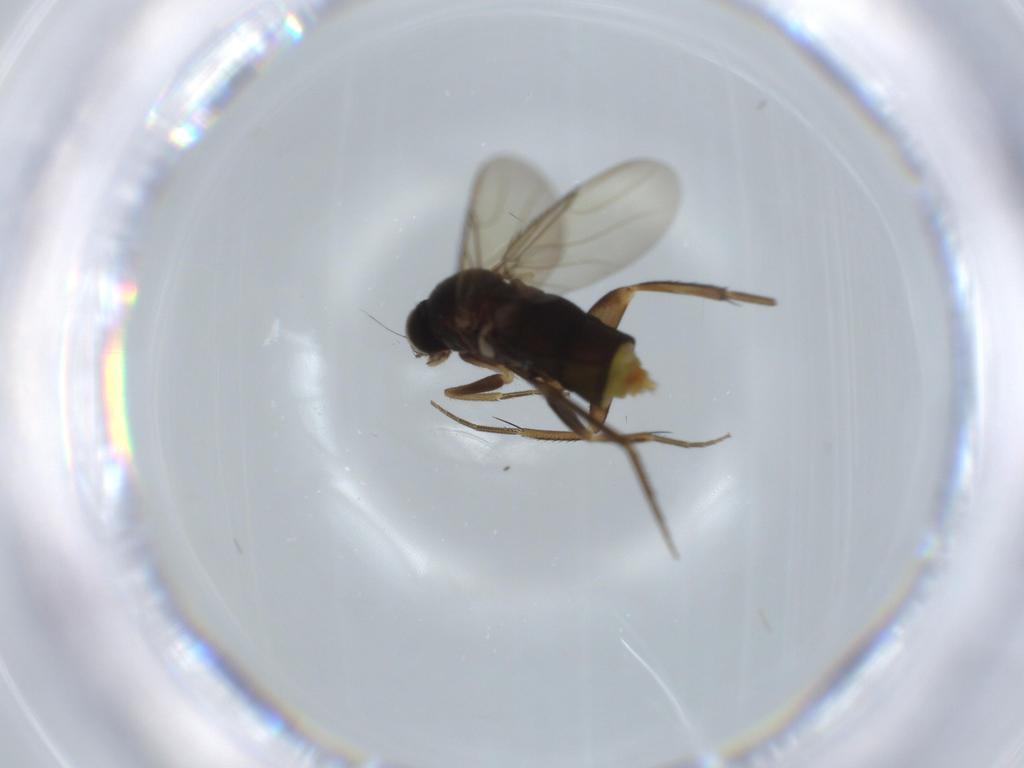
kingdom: Animalia
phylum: Arthropoda
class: Insecta
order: Diptera
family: Phoridae
